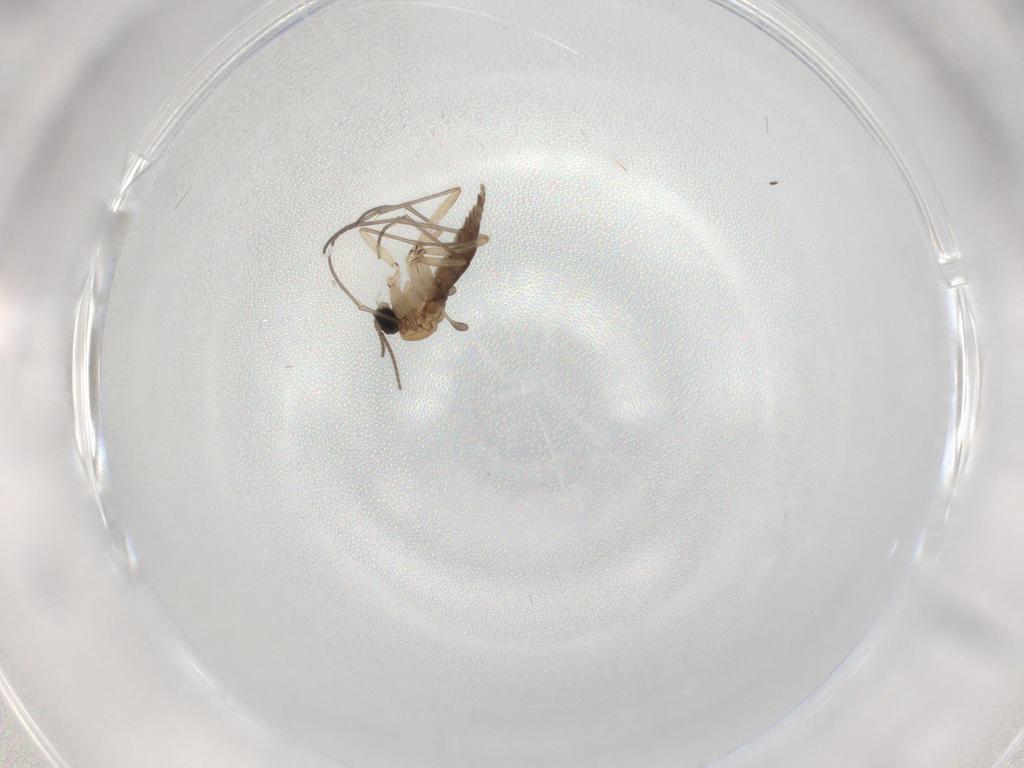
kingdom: Animalia
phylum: Arthropoda
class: Insecta
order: Diptera
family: Sciaridae
